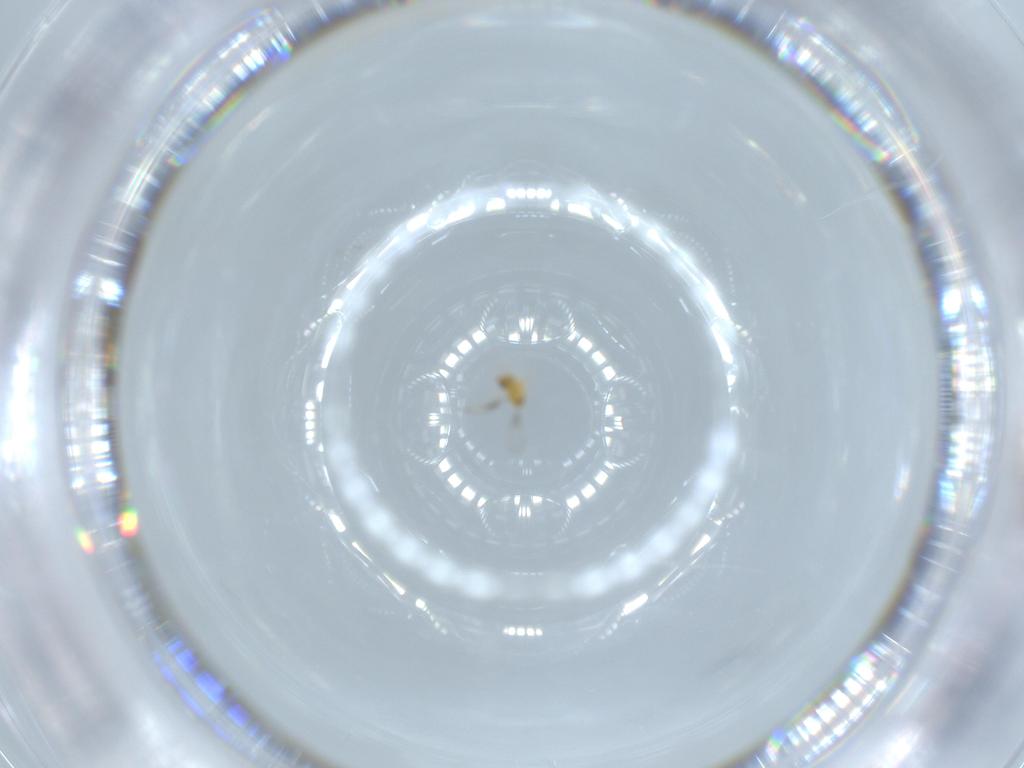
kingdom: Animalia
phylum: Arthropoda
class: Insecta
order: Hymenoptera
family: Trichogrammatidae
